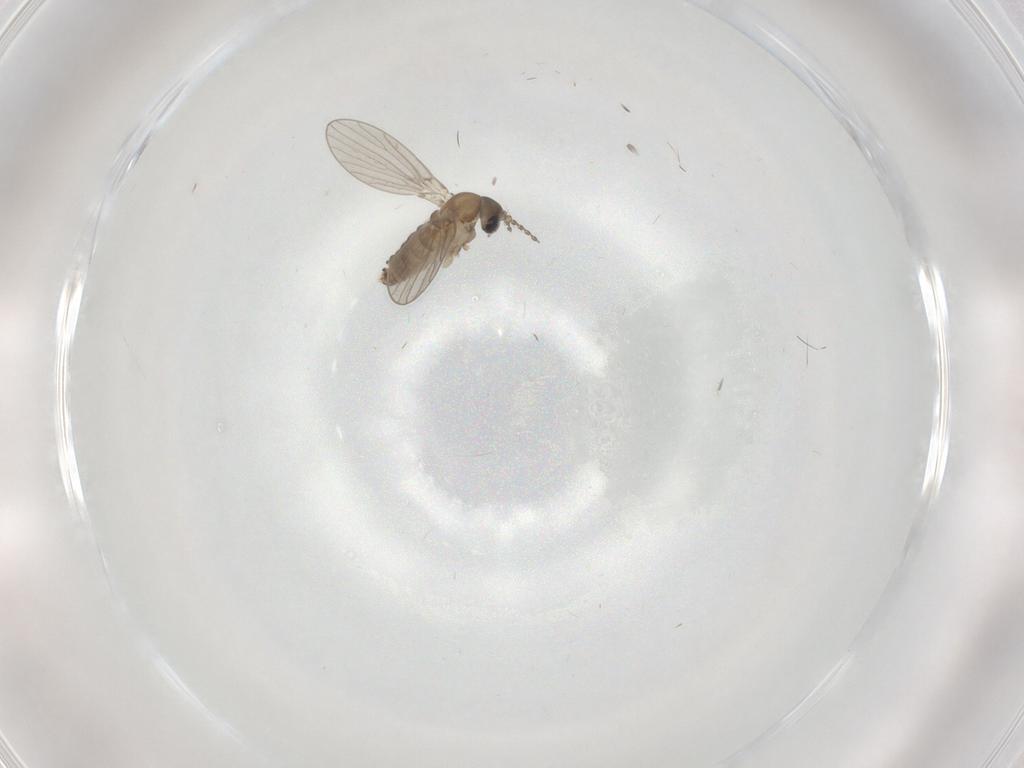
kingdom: Animalia
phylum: Arthropoda
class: Insecta
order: Diptera
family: Psychodidae
